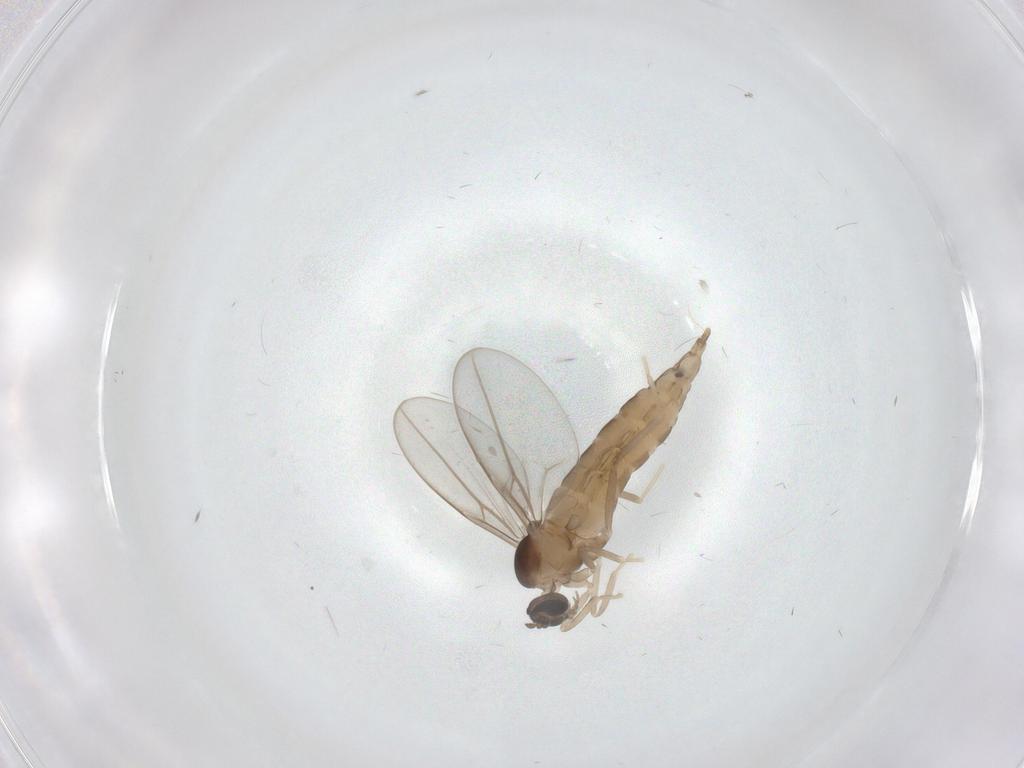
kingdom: Animalia
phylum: Arthropoda
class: Insecta
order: Diptera
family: Cecidomyiidae
